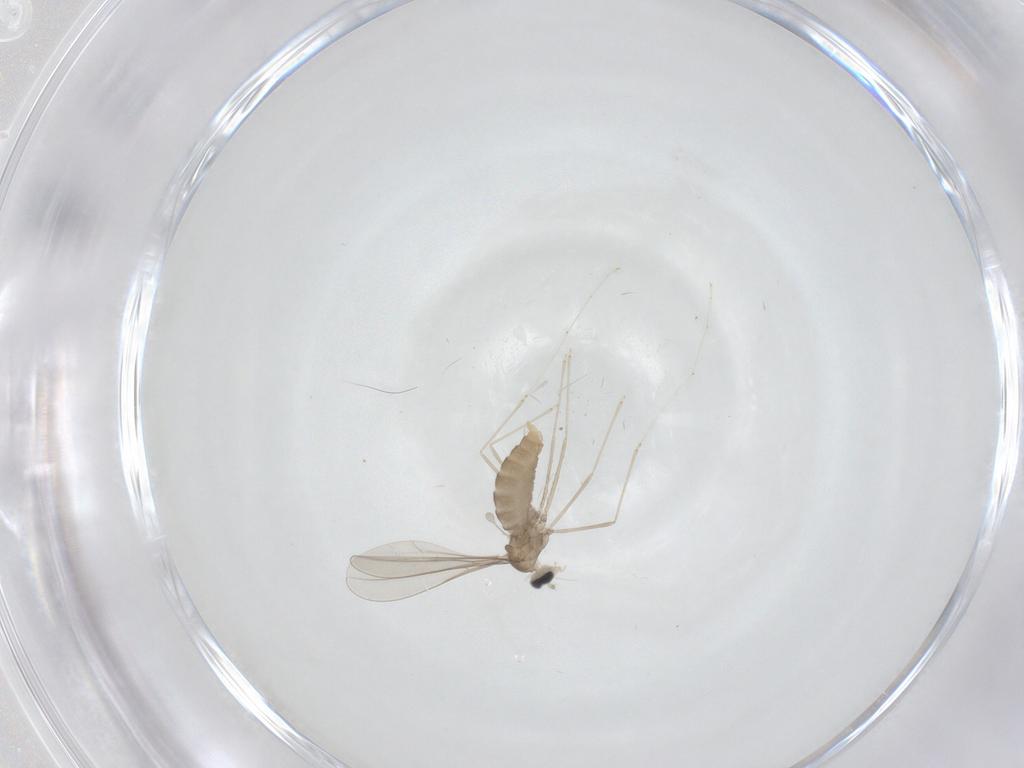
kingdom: Animalia
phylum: Arthropoda
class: Insecta
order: Diptera
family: Cecidomyiidae
